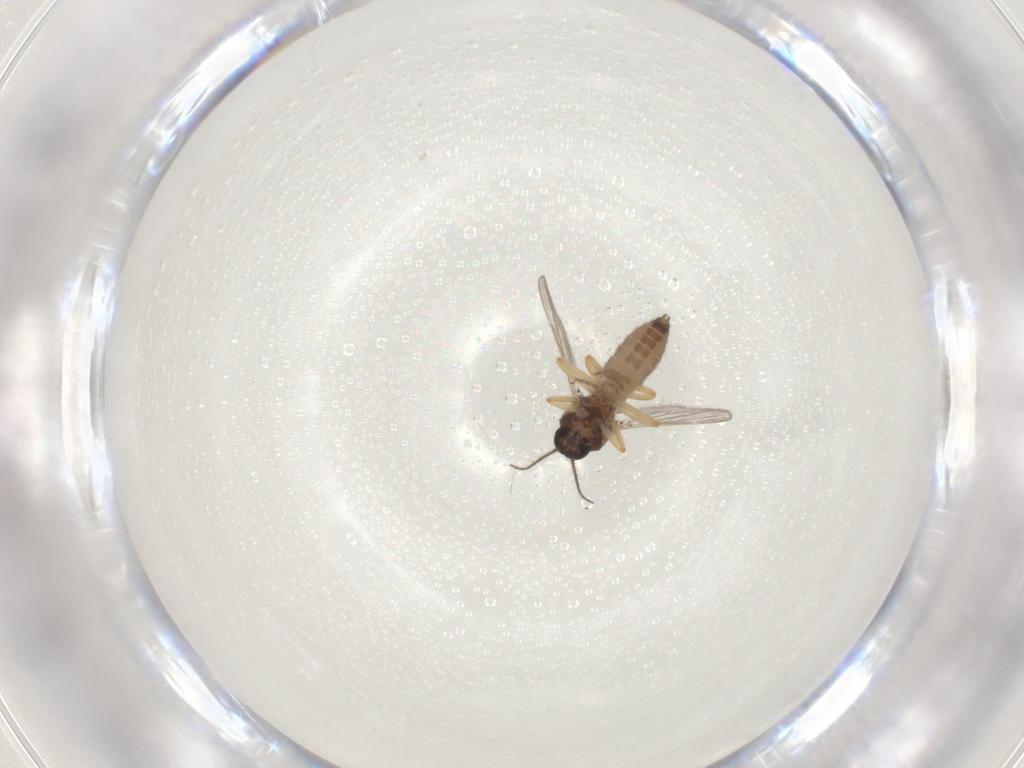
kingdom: Animalia
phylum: Arthropoda
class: Insecta
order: Diptera
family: Ceratopogonidae
